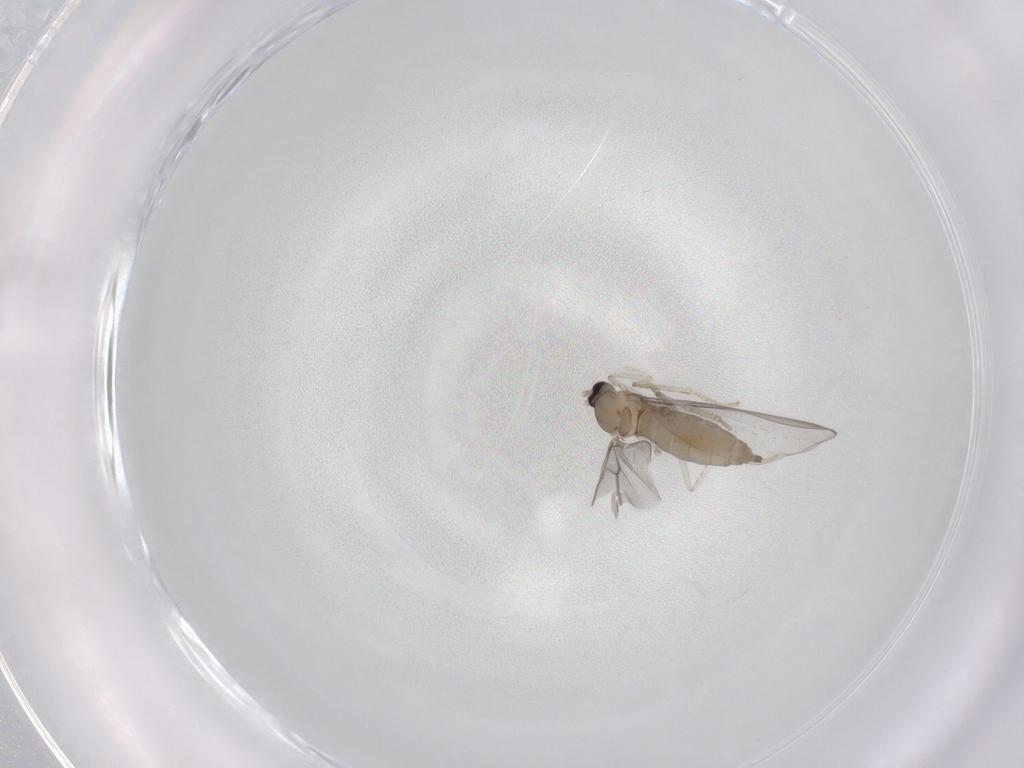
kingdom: Animalia
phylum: Arthropoda
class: Insecta
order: Diptera
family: Cecidomyiidae
